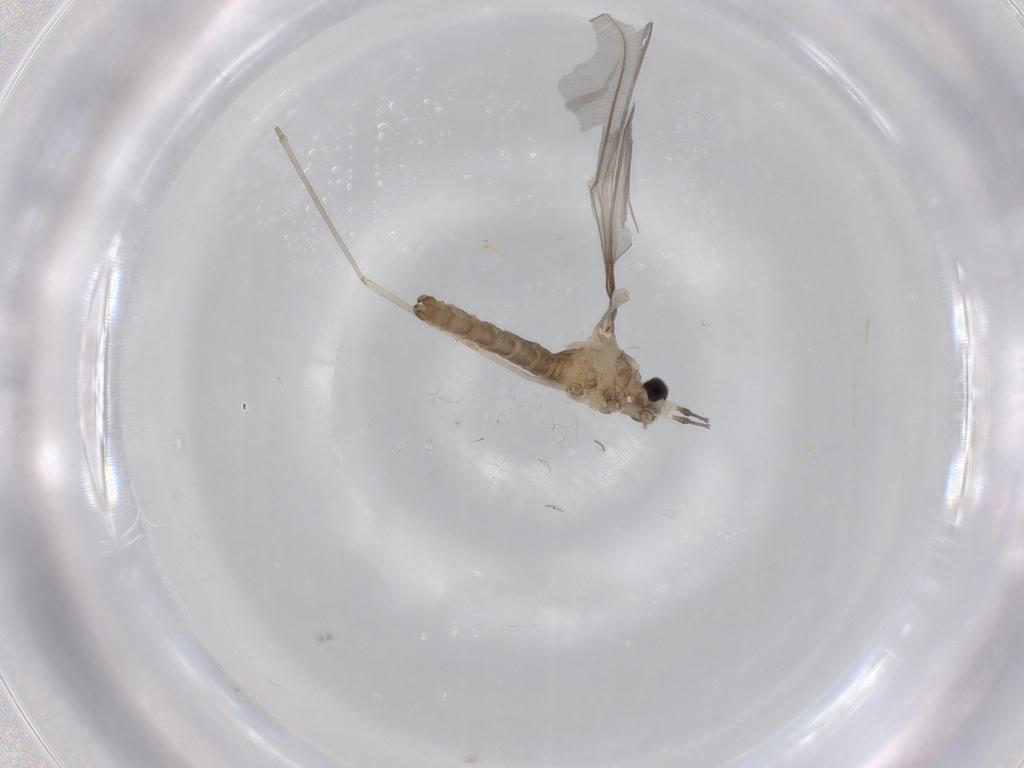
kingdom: Animalia
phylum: Arthropoda
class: Insecta
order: Diptera
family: Cecidomyiidae
